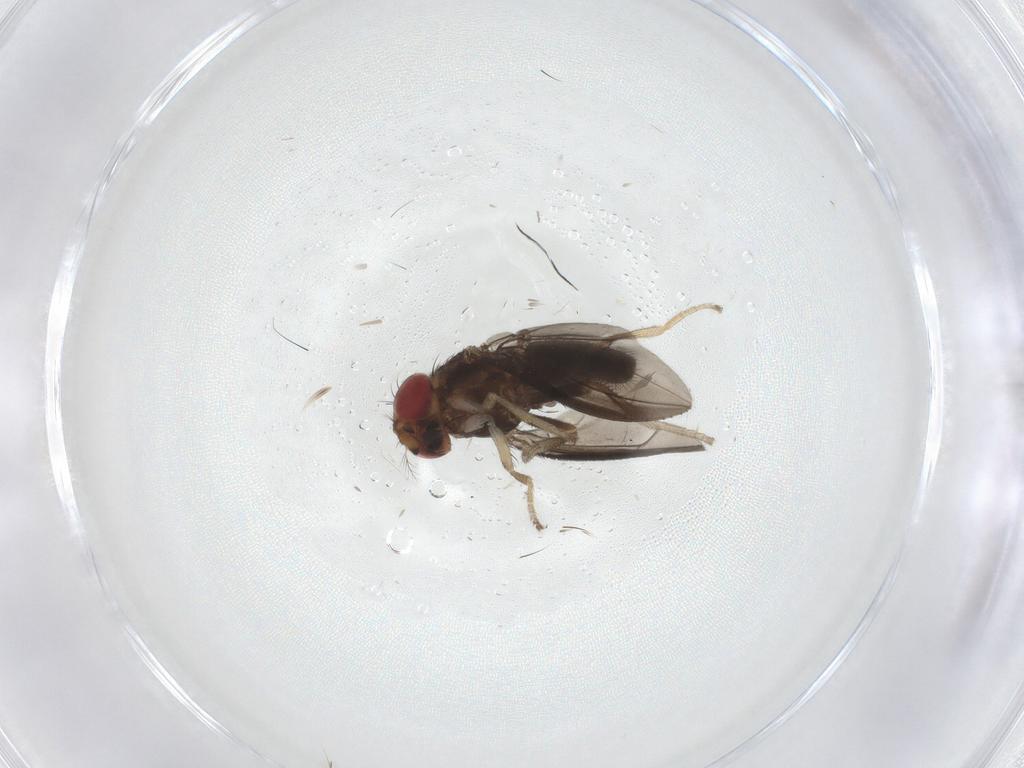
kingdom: Animalia
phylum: Arthropoda
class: Insecta
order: Diptera
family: Drosophilidae
